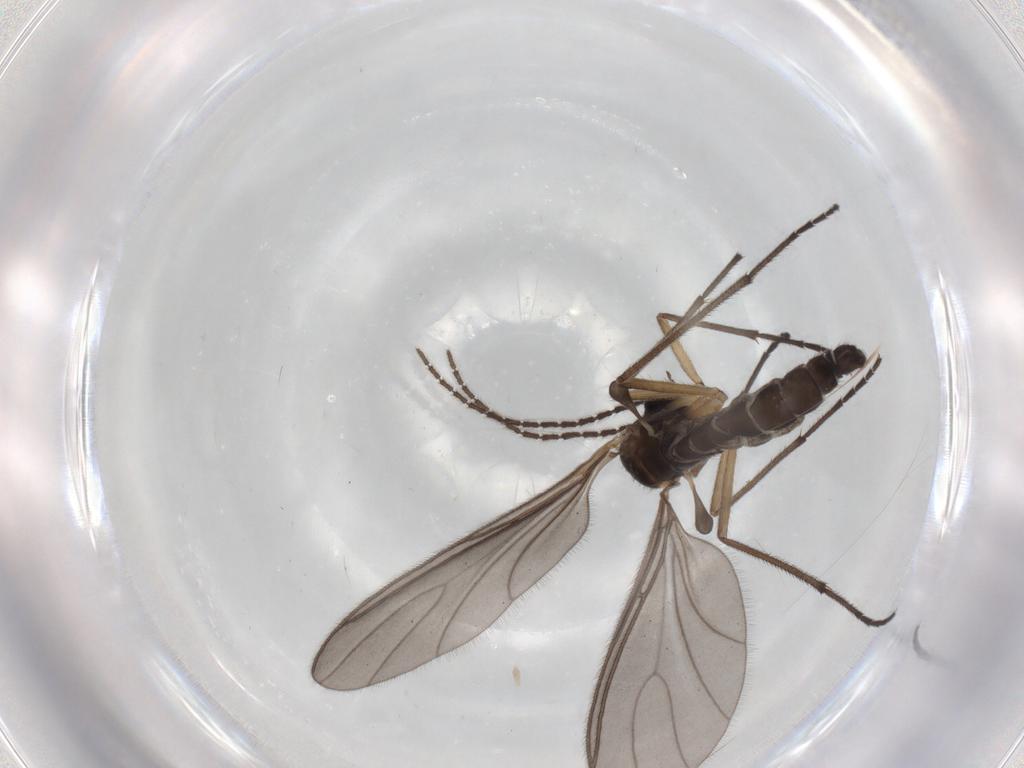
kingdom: Animalia
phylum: Arthropoda
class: Insecta
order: Diptera
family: Sciaridae
